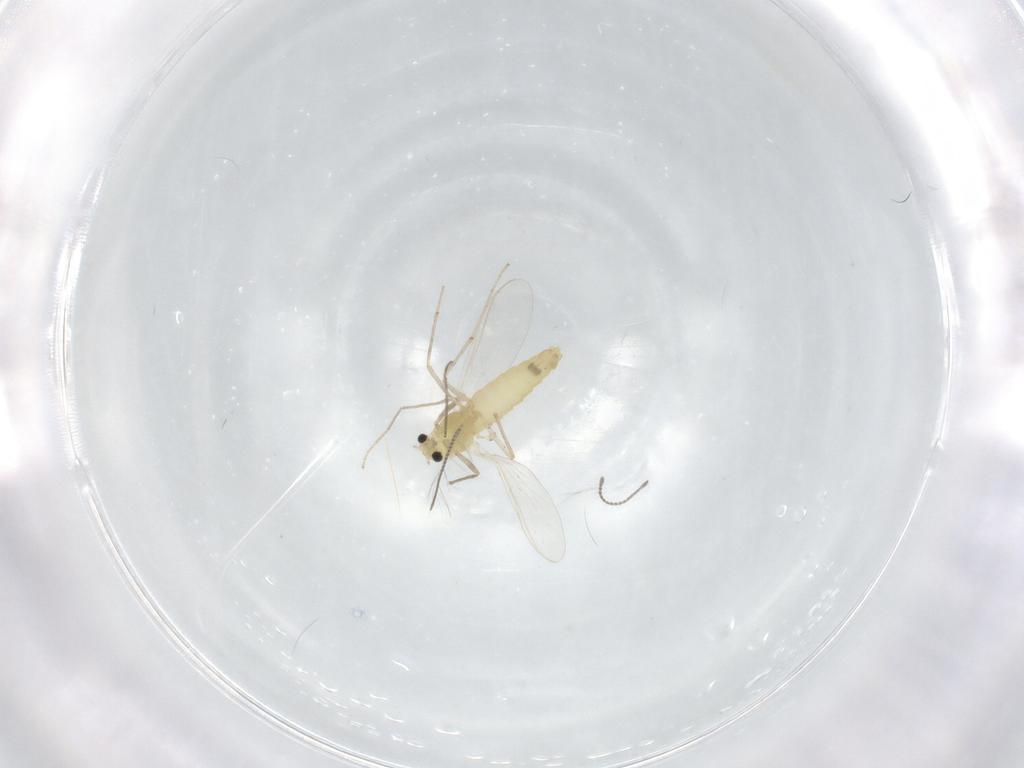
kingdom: Animalia
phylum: Arthropoda
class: Insecta
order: Diptera
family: Chironomidae
